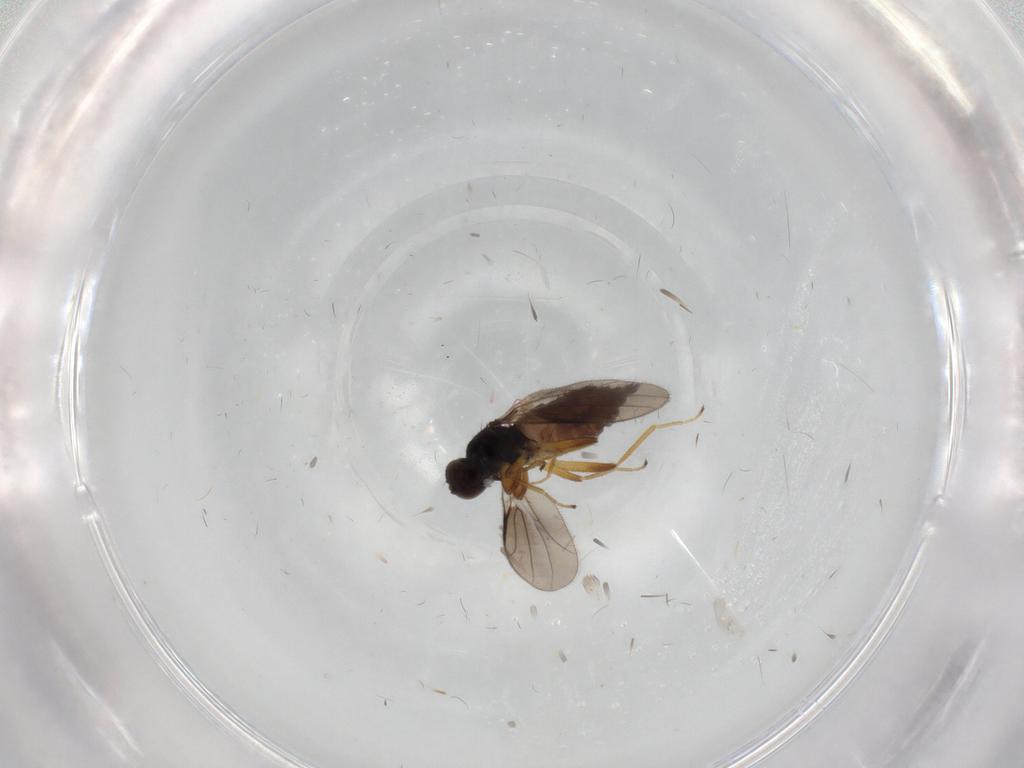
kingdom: Animalia
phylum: Arthropoda
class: Insecta
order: Diptera
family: Hybotidae
